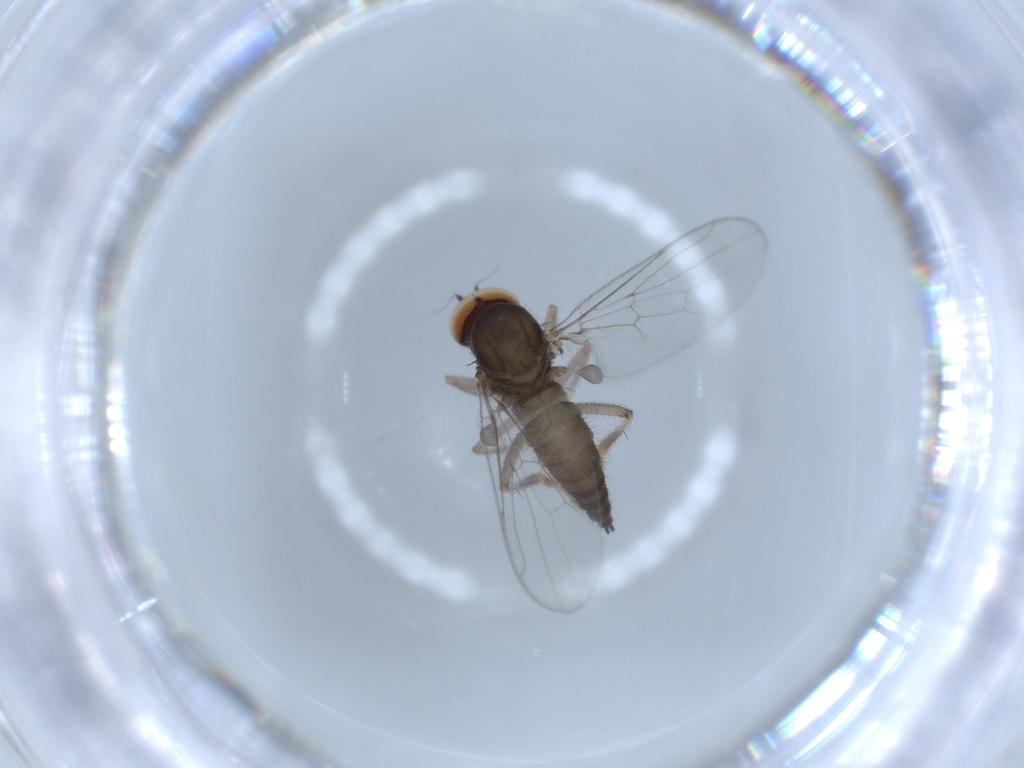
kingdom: Animalia
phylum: Arthropoda
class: Insecta
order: Diptera
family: Hybotidae
